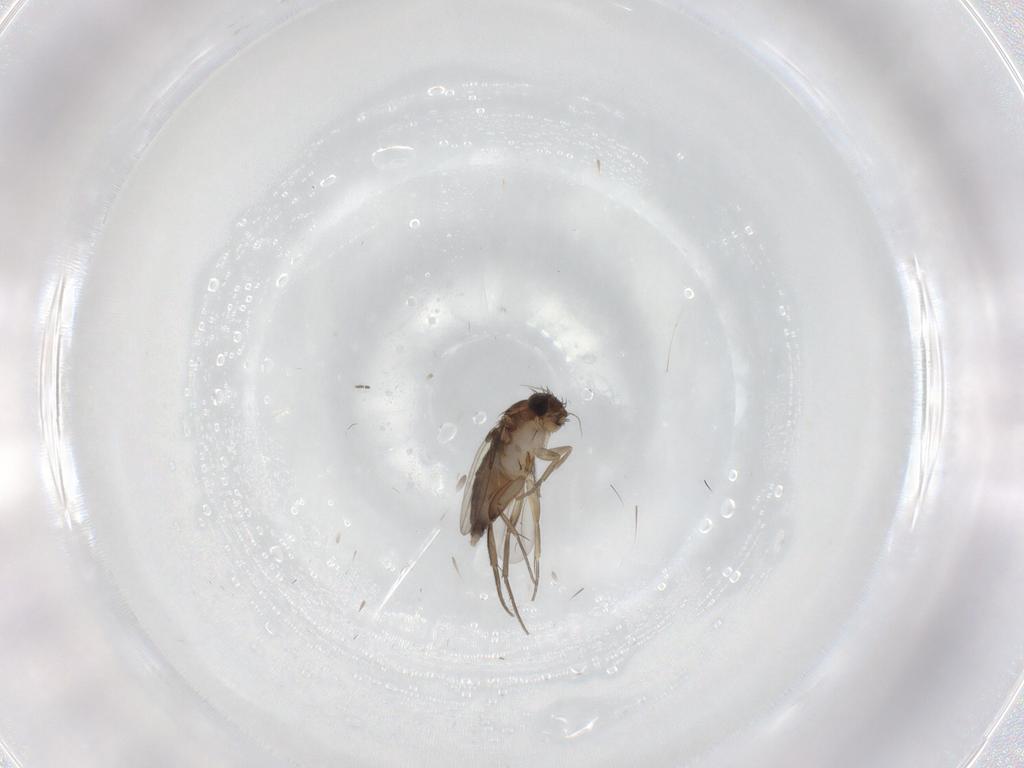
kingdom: Animalia
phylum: Arthropoda
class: Insecta
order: Diptera
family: Phoridae
